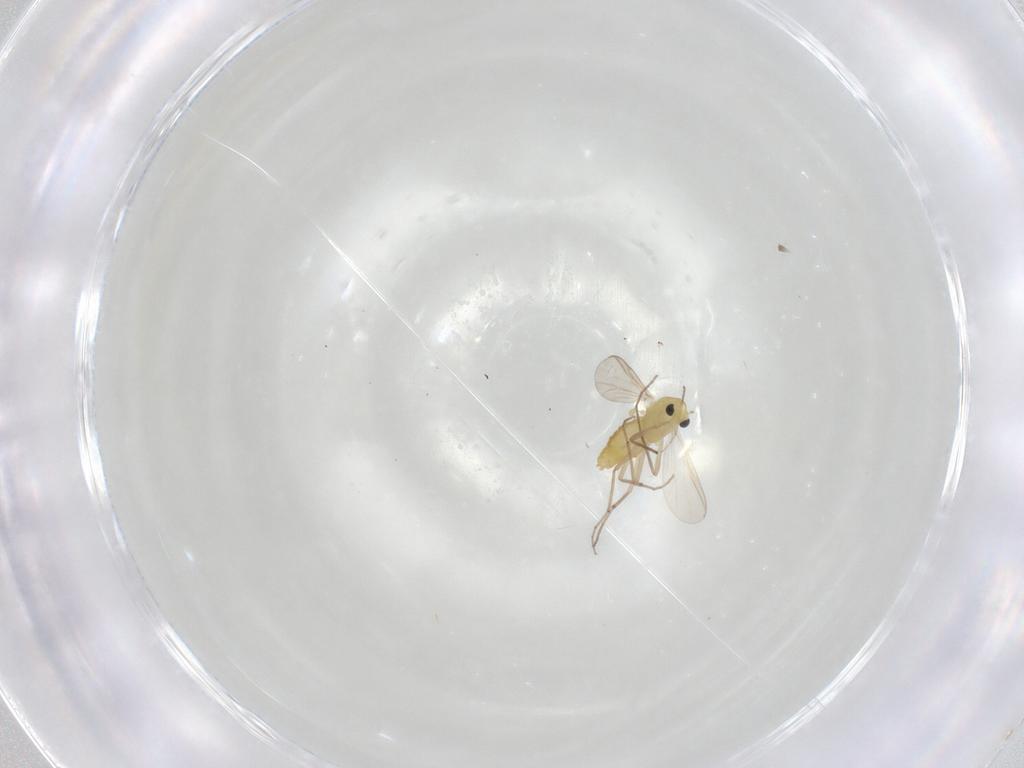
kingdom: Animalia
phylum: Arthropoda
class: Insecta
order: Diptera
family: Chironomidae
